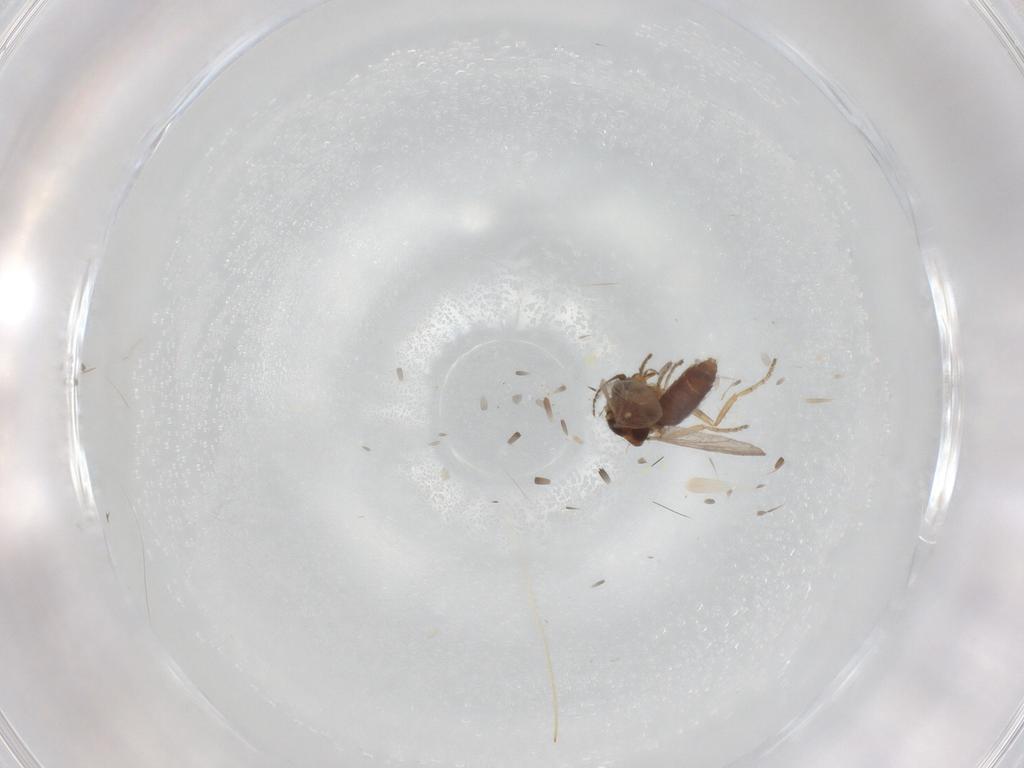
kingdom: Animalia
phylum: Arthropoda
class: Insecta
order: Diptera
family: Ceratopogonidae
